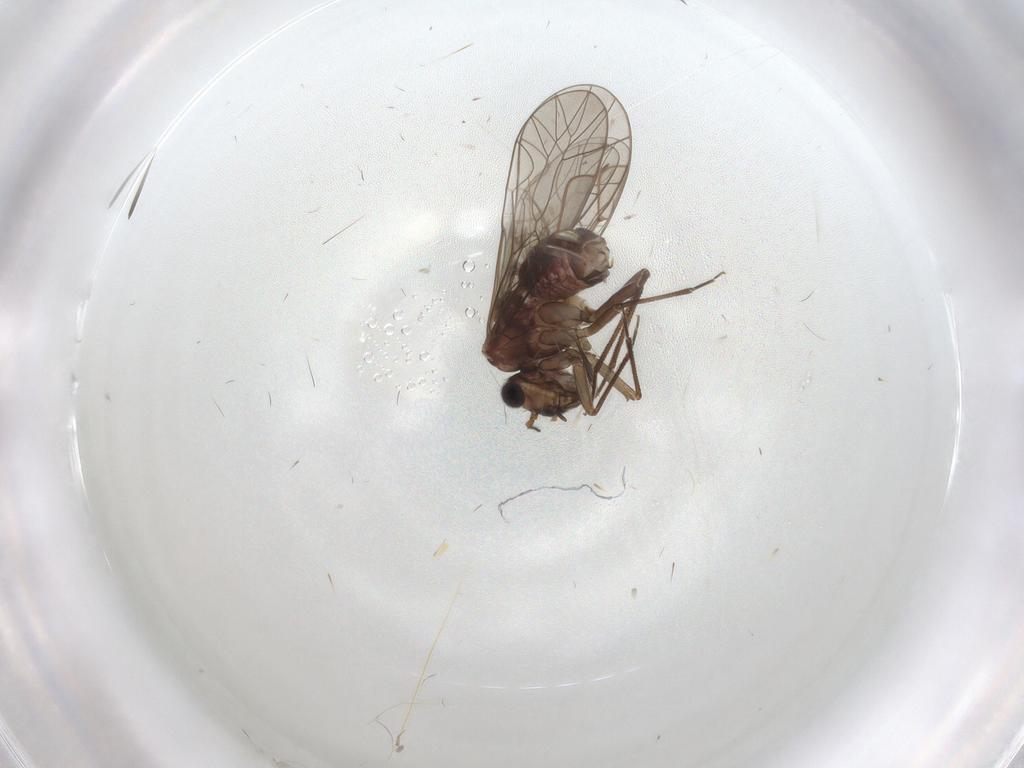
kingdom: Animalia
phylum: Arthropoda
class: Insecta
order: Psocodea
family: Lachesillidae
